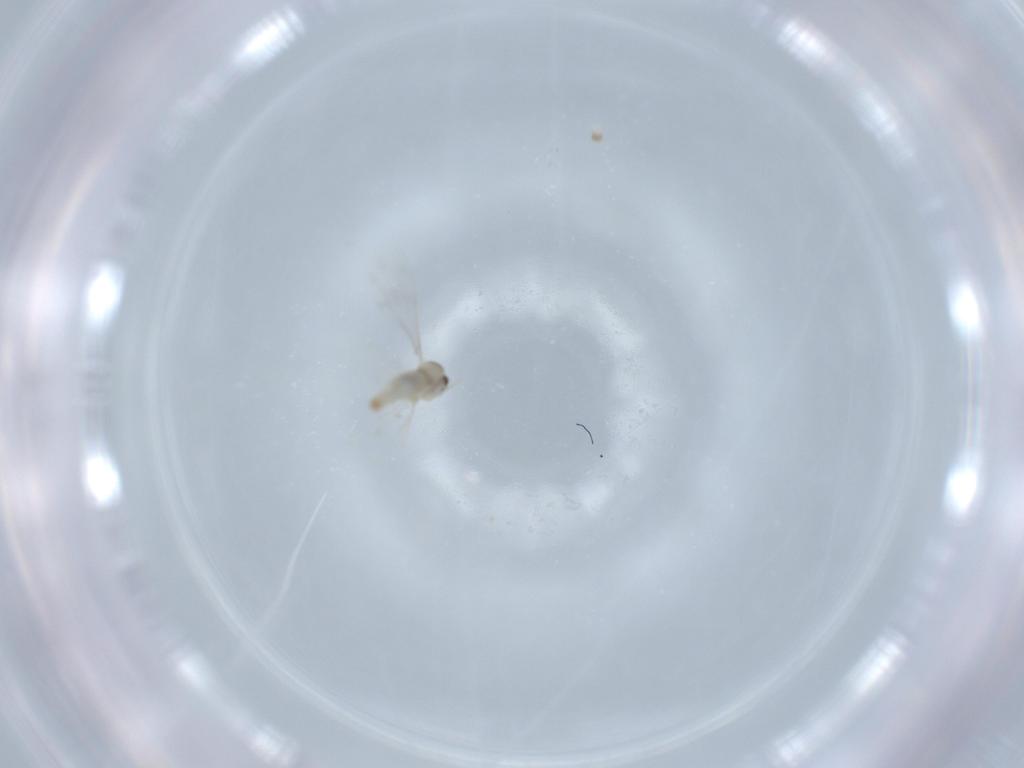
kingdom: Animalia
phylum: Arthropoda
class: Insecta
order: Diptera
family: Cecidomyiidae
